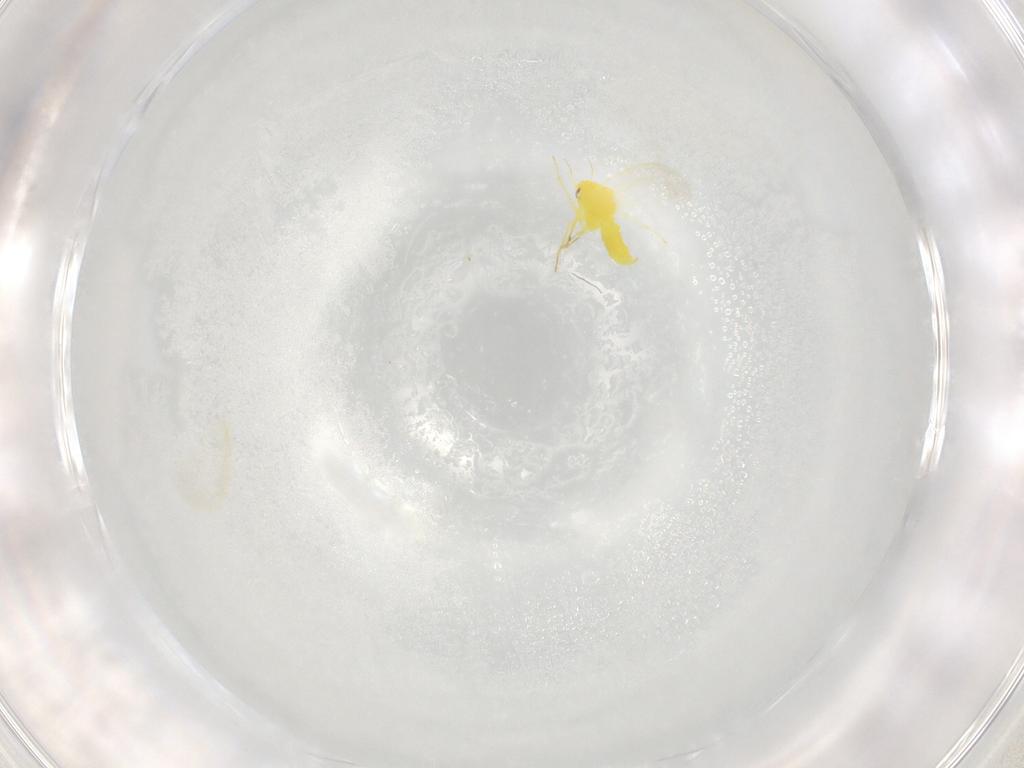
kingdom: Animalia
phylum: Arthropoda
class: Insecta
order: Hemiptera
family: Aleyrodidae
